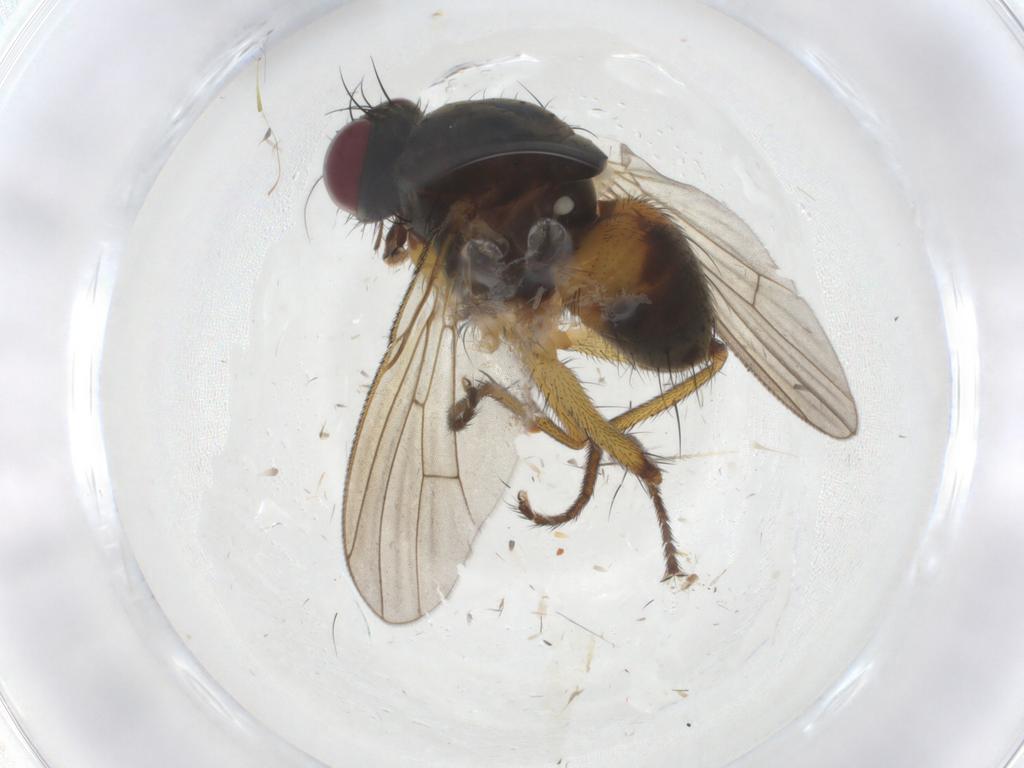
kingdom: Animalia
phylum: Arthropoda
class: Insecta
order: Diptera
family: Muscidae
